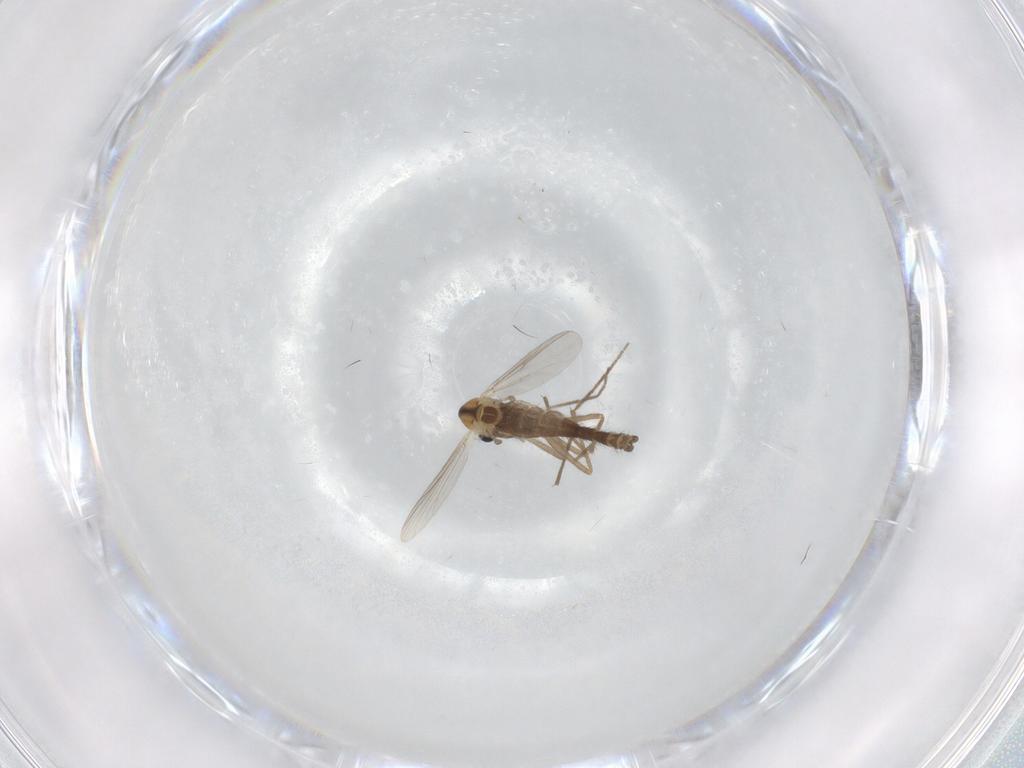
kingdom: Animalia
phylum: Arthropoda
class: Insecta
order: Diptera
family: Chironomidae
